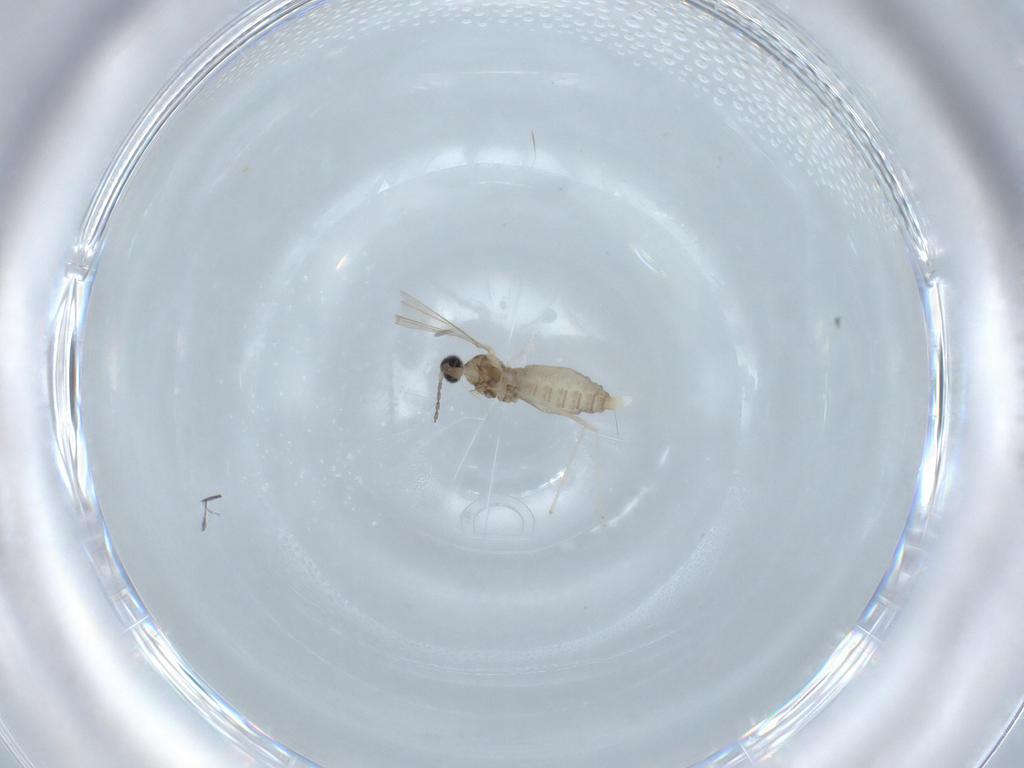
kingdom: Animalia
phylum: Arthropoda
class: Insecta
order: Diptera
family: Cecidomyiidae
